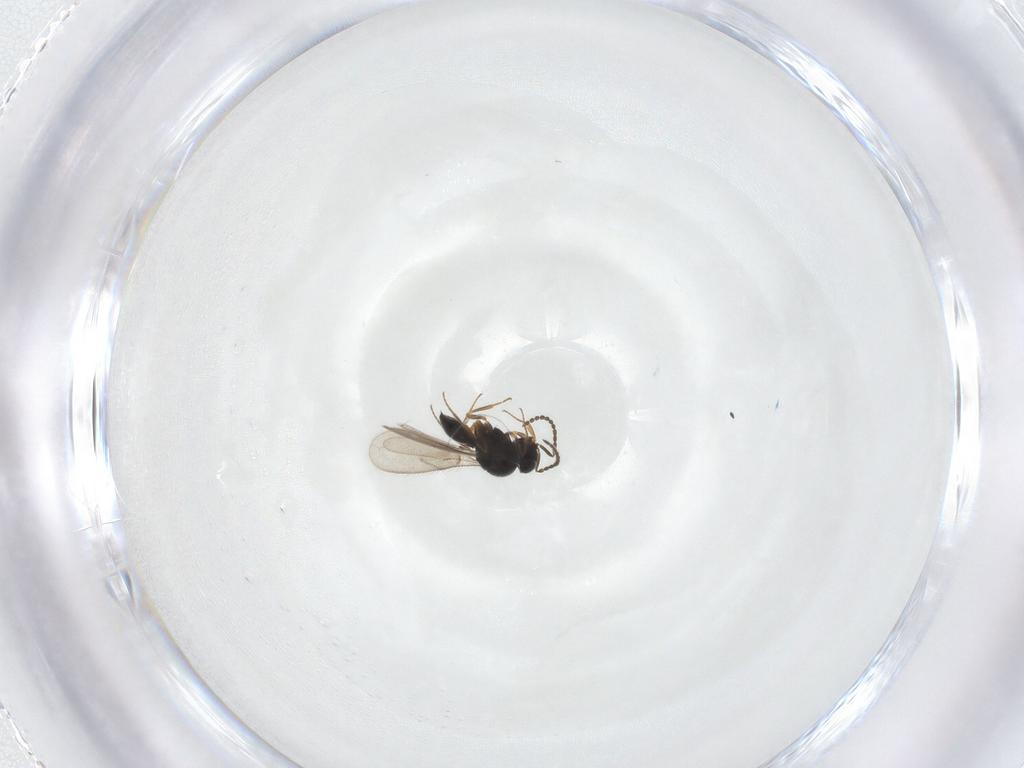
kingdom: Animalia
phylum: Arthropoda
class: Insecta
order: Hymenoptera
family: Scelionidae
